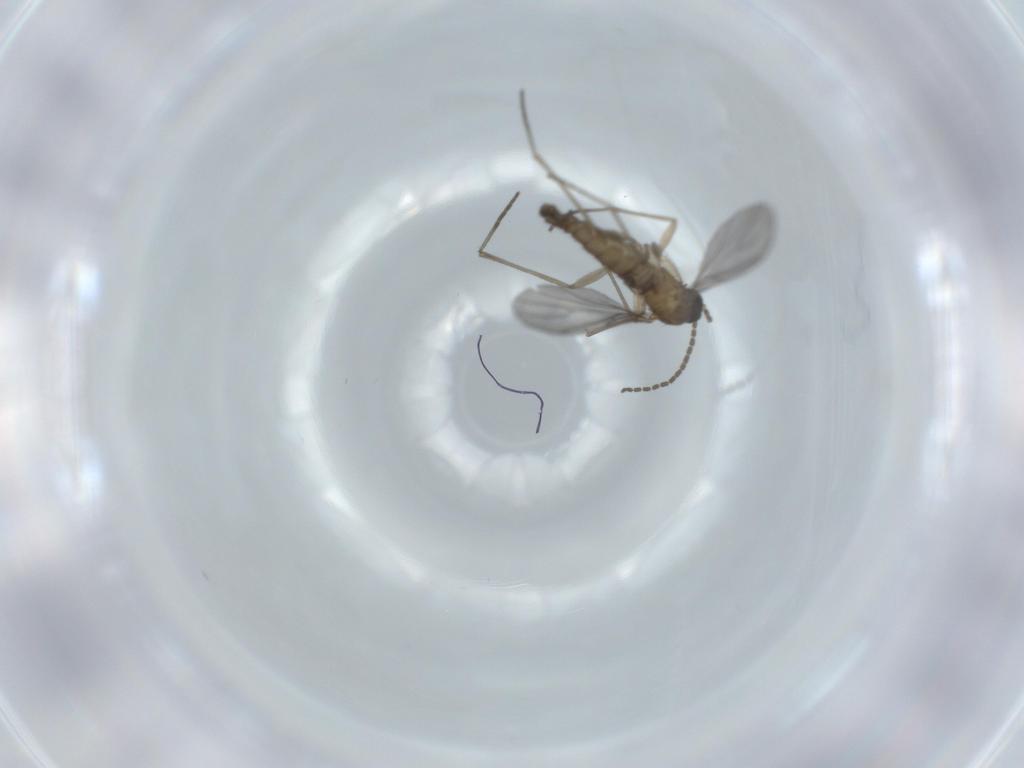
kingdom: Animalia
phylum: Arthropoda
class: Insecta
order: Diptera
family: Sciaridae
